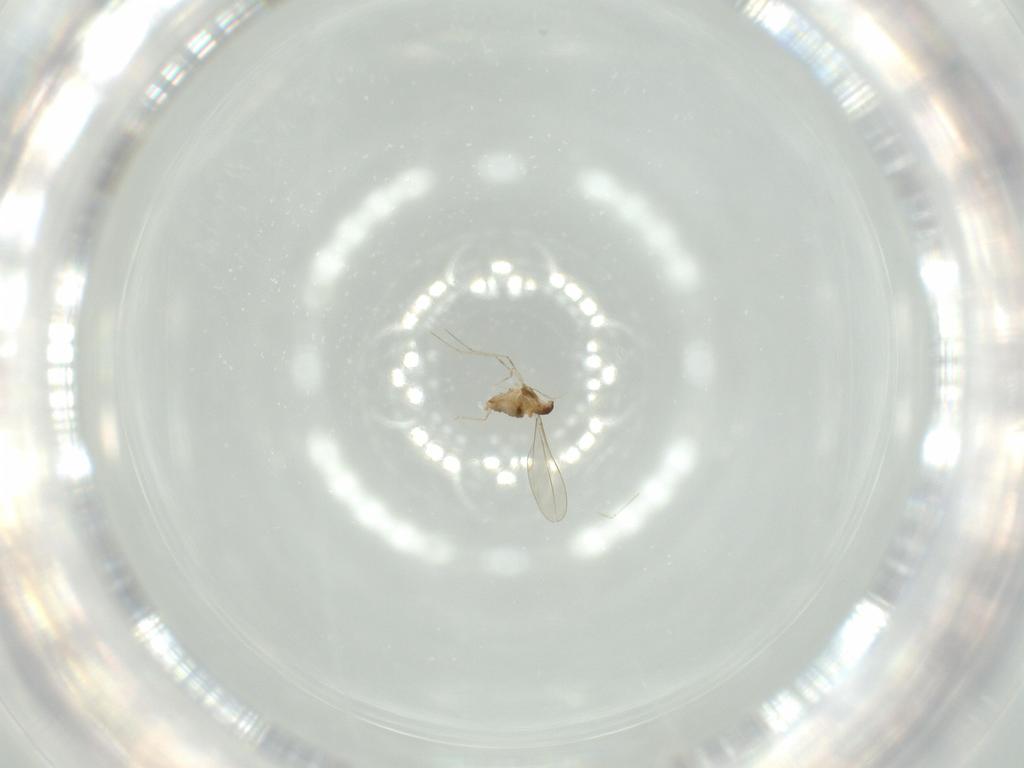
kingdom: Animalia
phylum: Arthropoda
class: Insecta
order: Diptera
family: Cecidomyiidae
